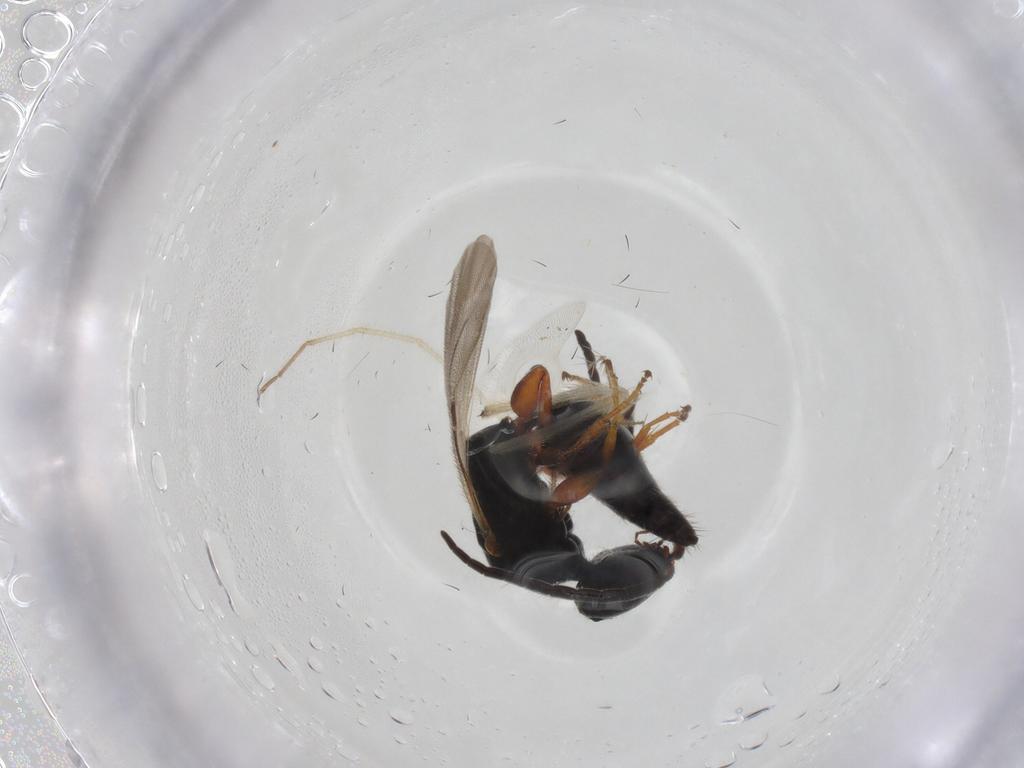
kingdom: Animalia
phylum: Arthropoda
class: Insecta
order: Hymenoptera
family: Bethylidae
